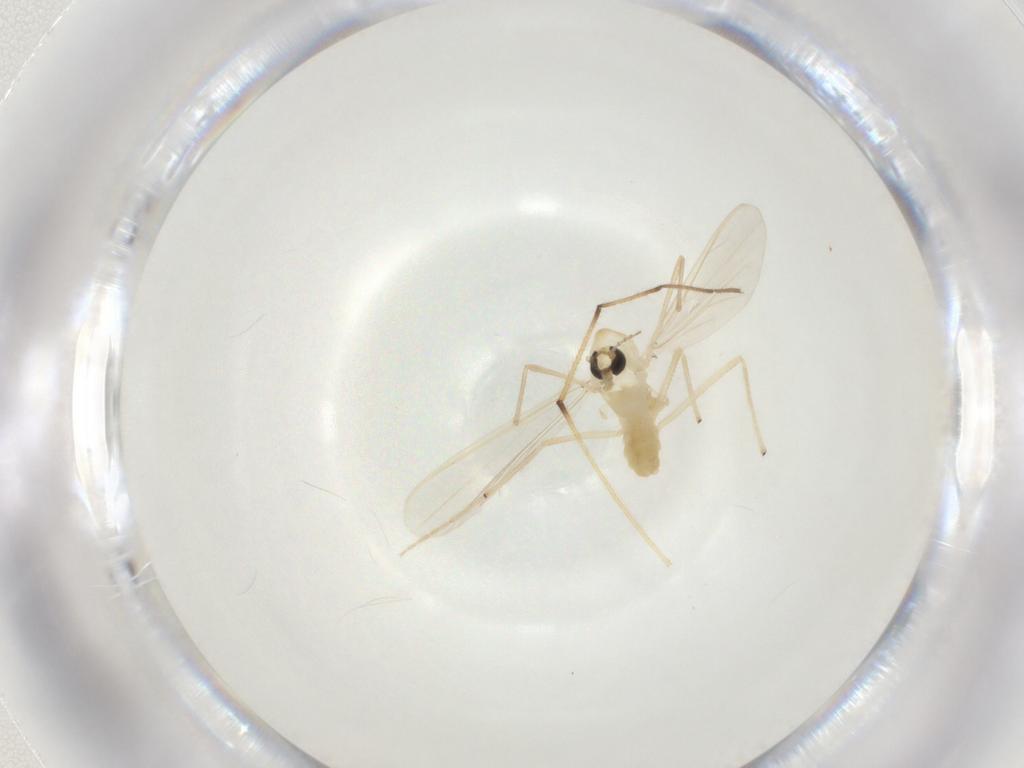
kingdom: Animalia
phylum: Arthropoda
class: Insecta
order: Diptera
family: Chironomidae
